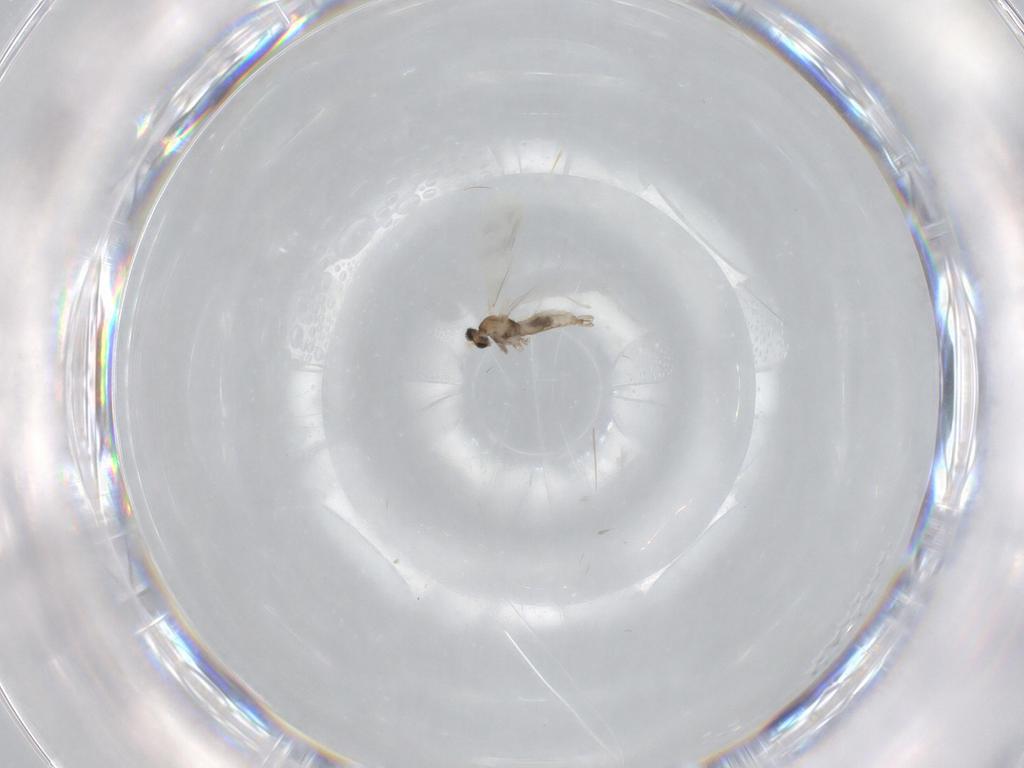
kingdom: Animalia
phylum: Arthropoda
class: Insecta
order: Diptera
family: Cecidomyiidae
